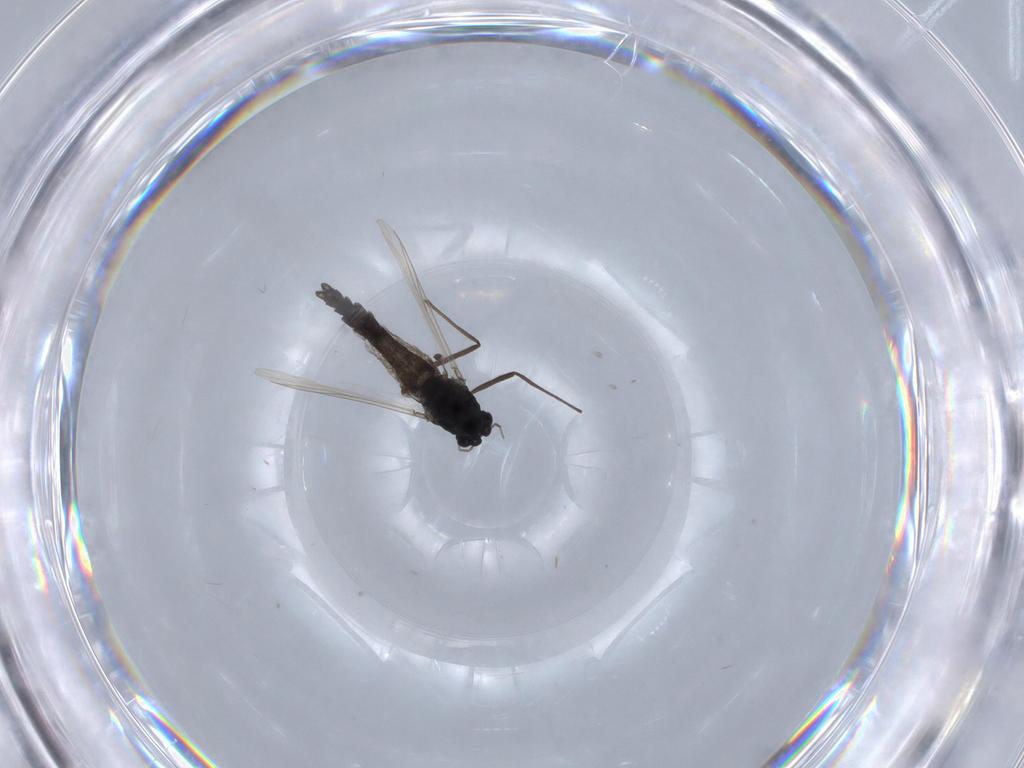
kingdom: Animalia
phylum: Arthropoda
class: Insecta
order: Diptera
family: Chironomidae
